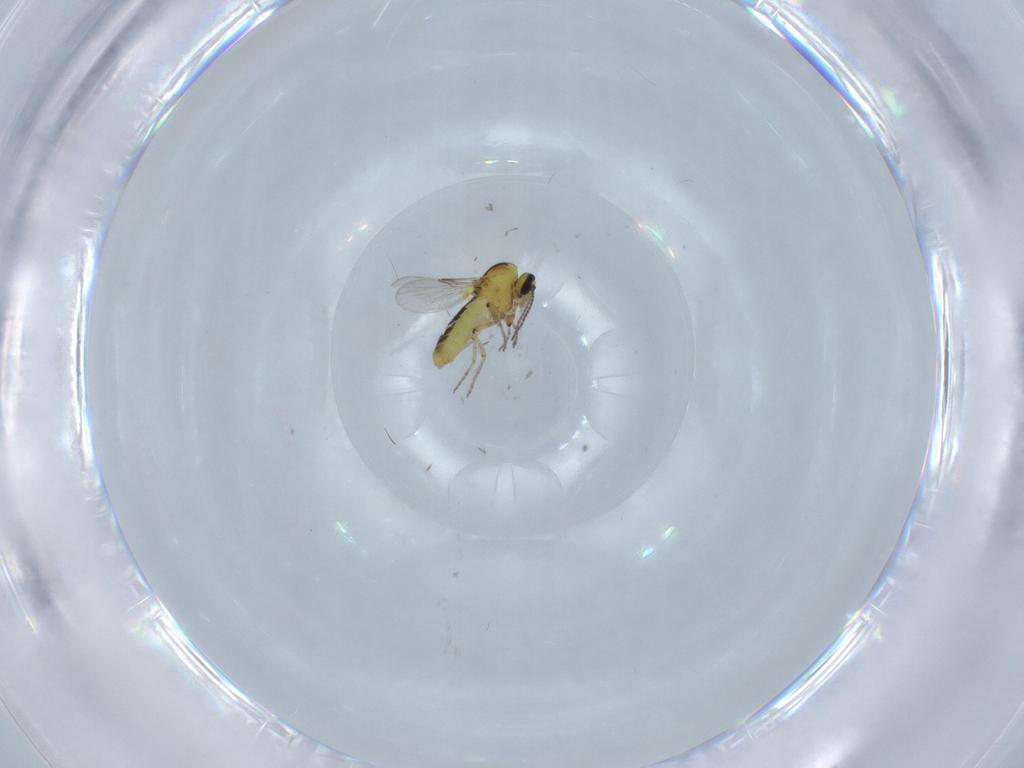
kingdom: Animalia
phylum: Arthropoda
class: Insecta
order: Diptera
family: Ceratopogonidae
